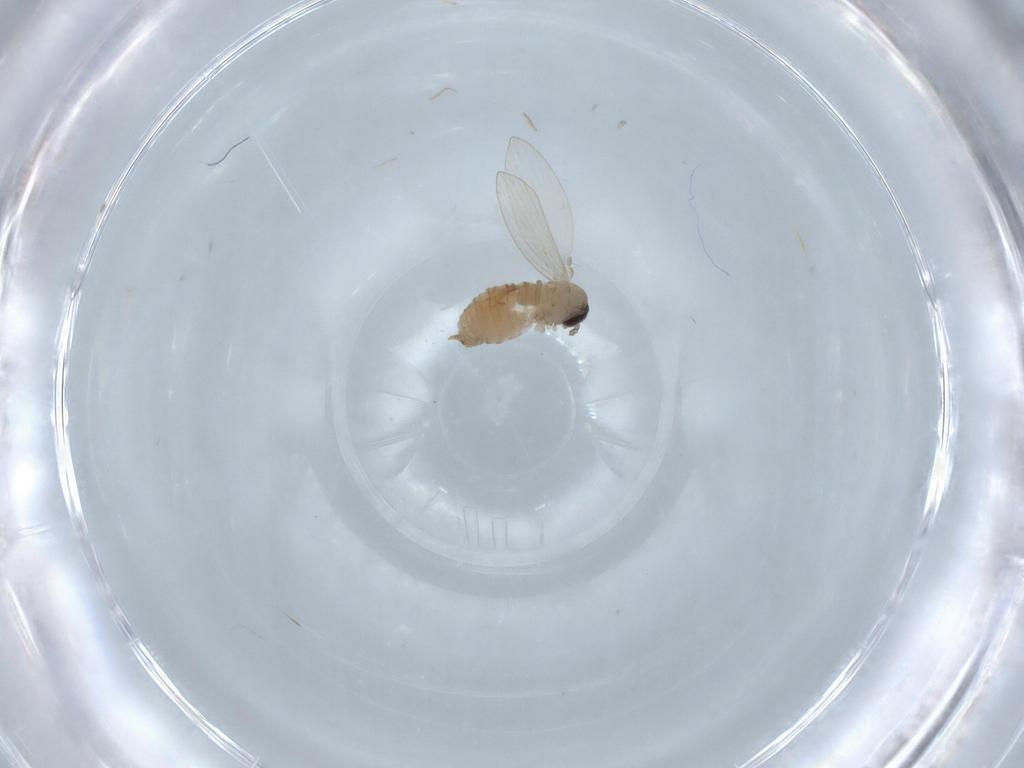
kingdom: Animalia
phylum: Arthropoda
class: Insecta
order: Diptera
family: Psychodidae
